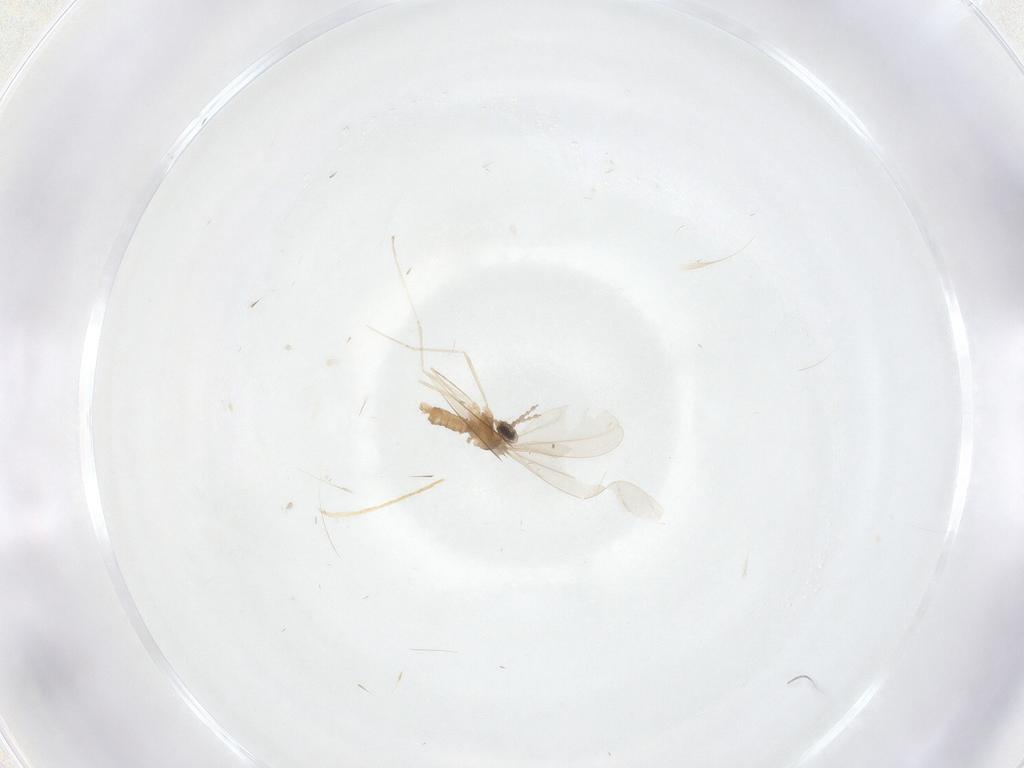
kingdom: Animalia
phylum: Arthropoda
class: Insecta
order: Diptera
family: Cecidomyiidae
